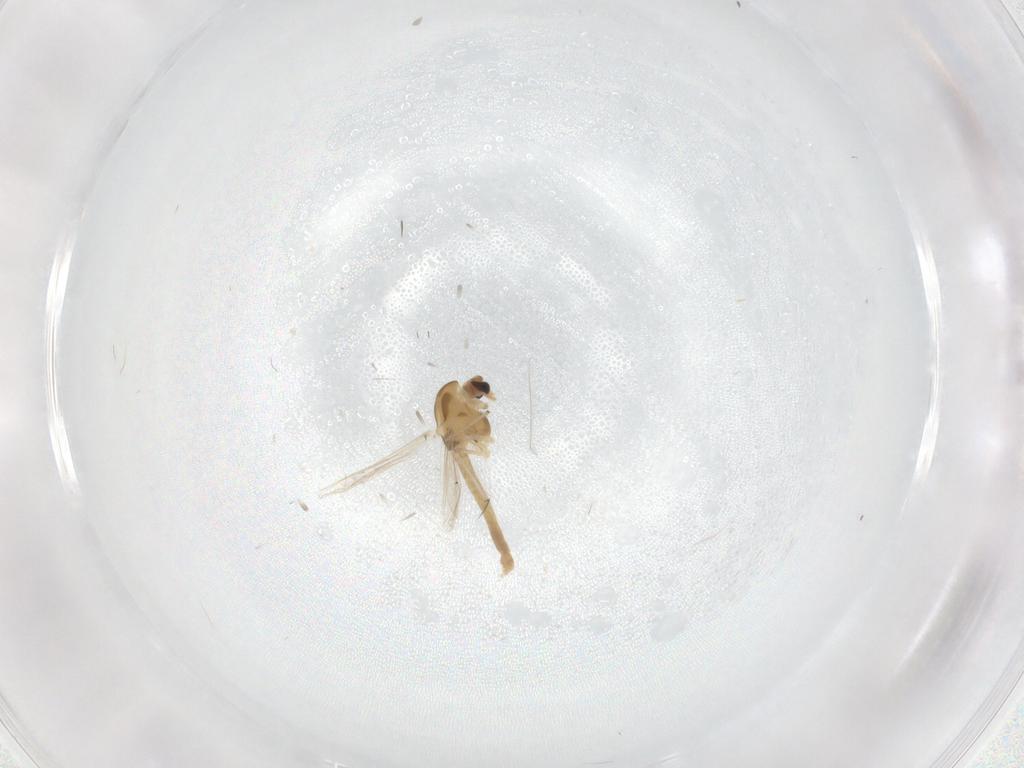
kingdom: Animalia
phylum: Arthropoda
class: Insecta
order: Diptera
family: Chironomidae
